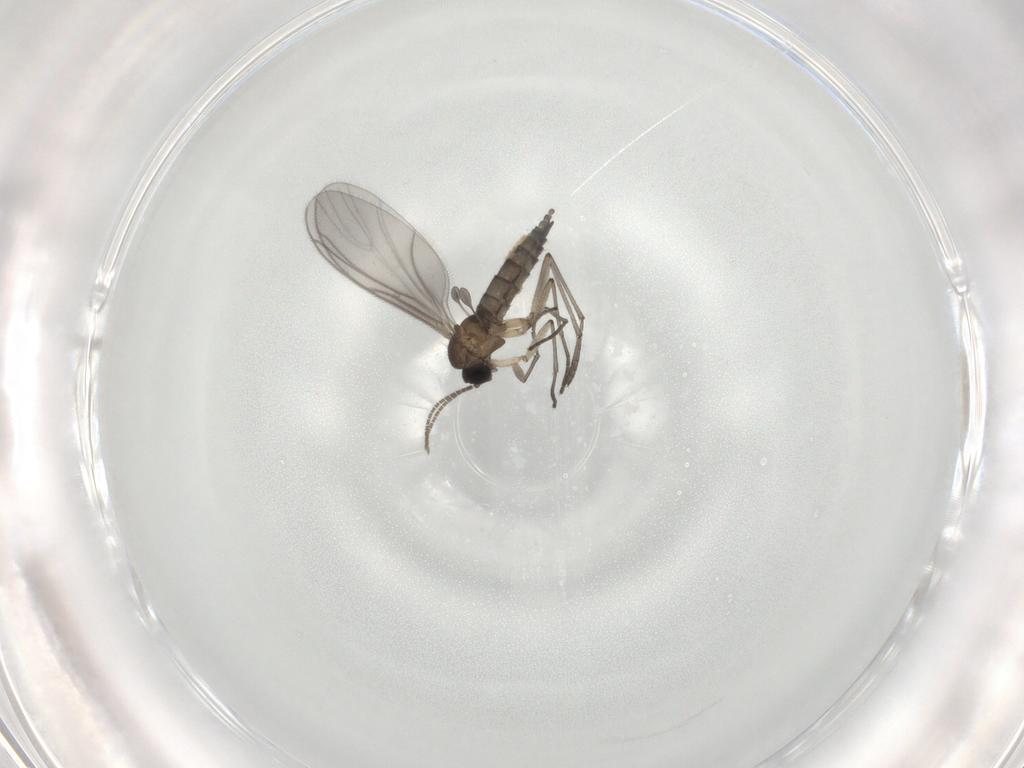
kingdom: Animalia
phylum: Arthropoda
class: Insecta
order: Diptera
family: Sciaridae
